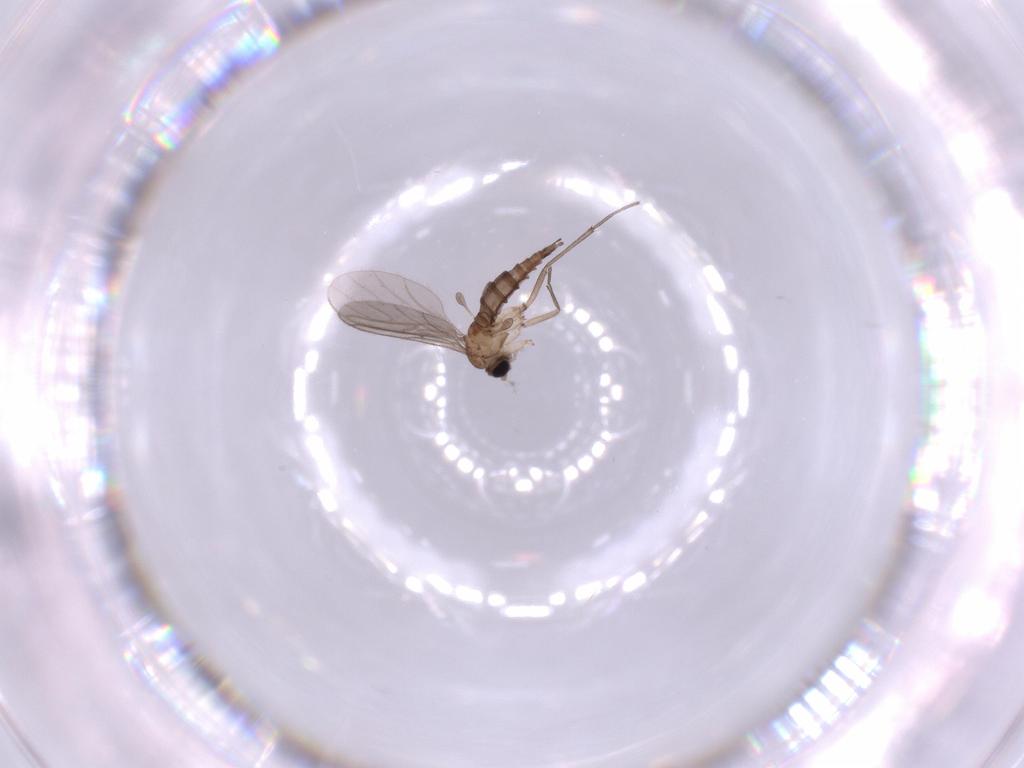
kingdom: Animalia
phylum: Arthropoda
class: Insecta
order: Diptera
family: Sciaridae
